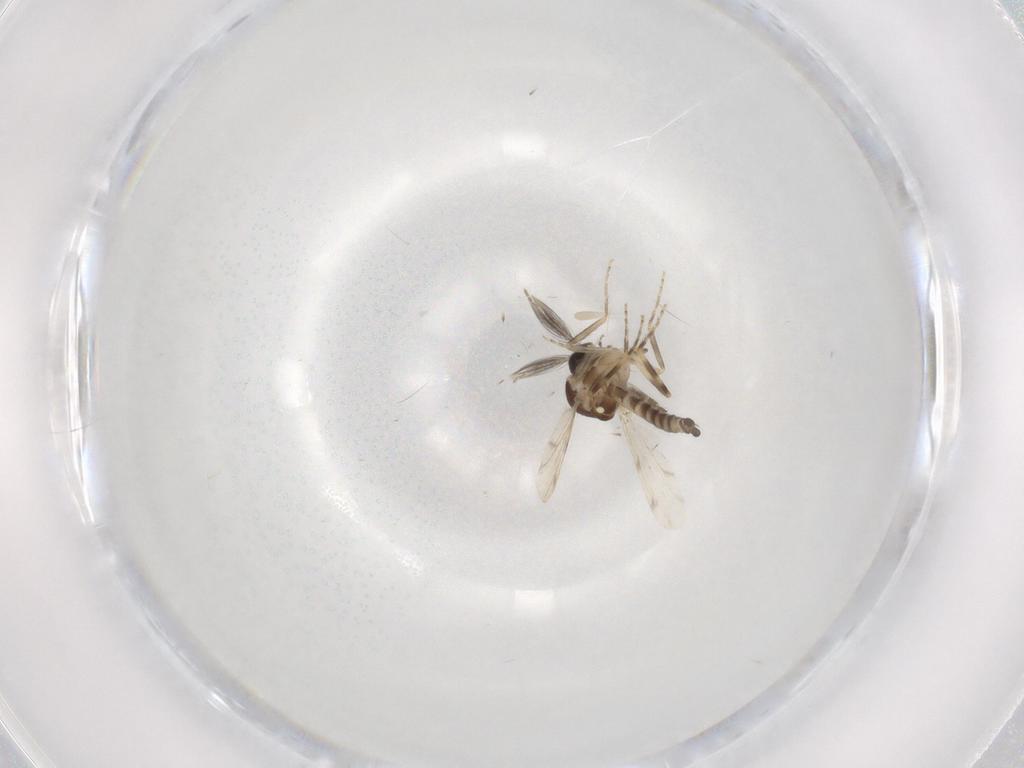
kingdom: Animalia
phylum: Arthropoda
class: Insecta
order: Diptera
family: Ceratopogonidae
